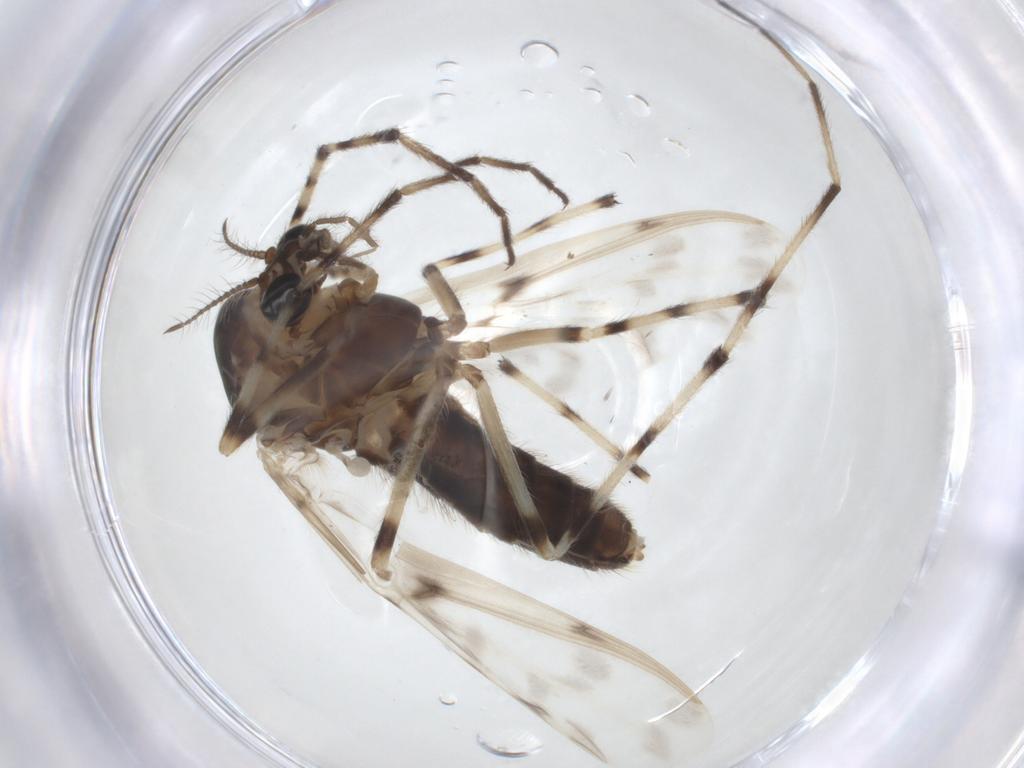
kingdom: Animalia
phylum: Arthropoda
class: Insecta
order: Diptera
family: Chironomidae
